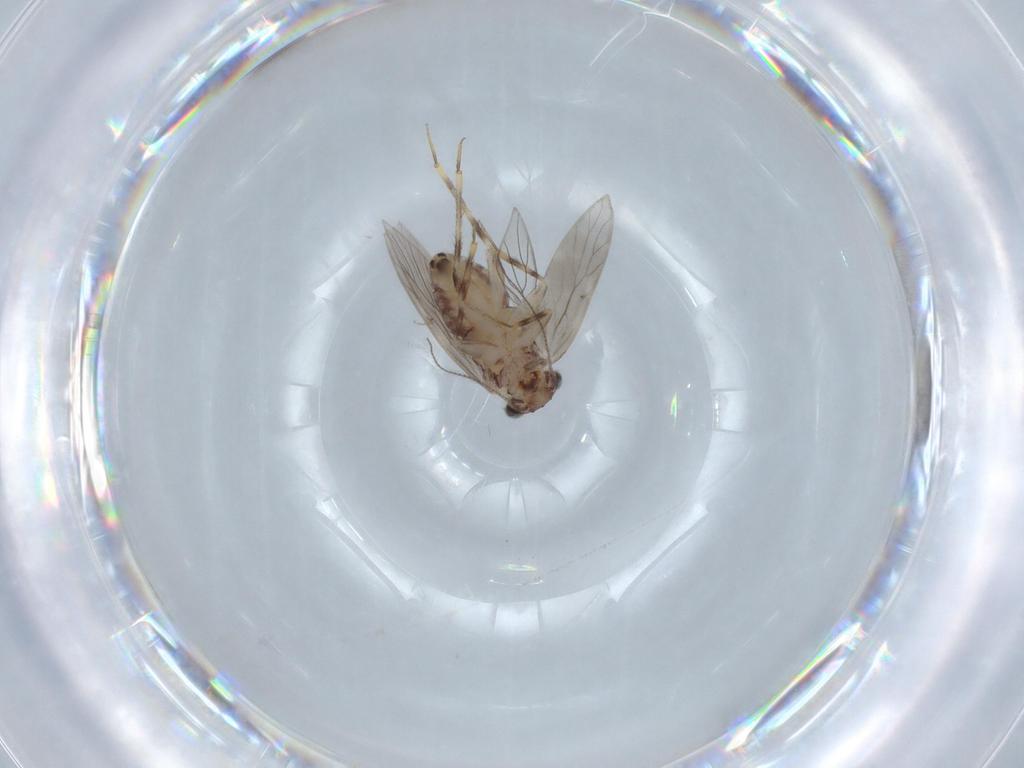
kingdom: Animalia
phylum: Arthropoda
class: Insecta
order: Psocodea
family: Lepidopsocidae
